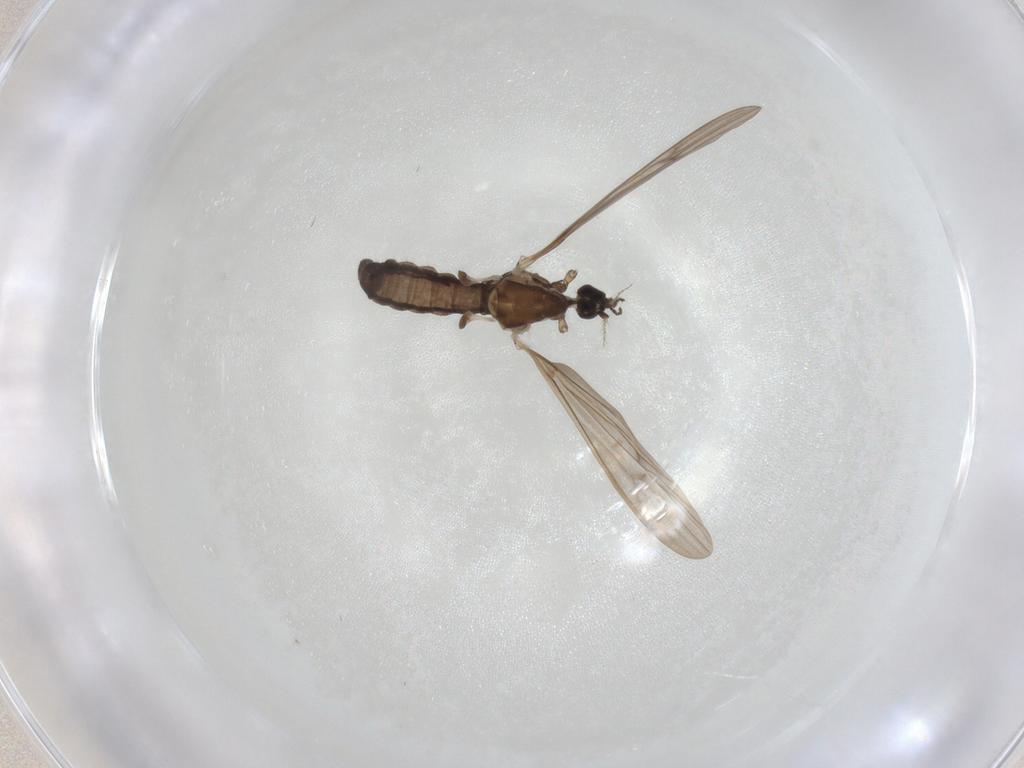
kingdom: Animalia
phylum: Arthropoda
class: Insecta
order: Diptera
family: Limoniidae
